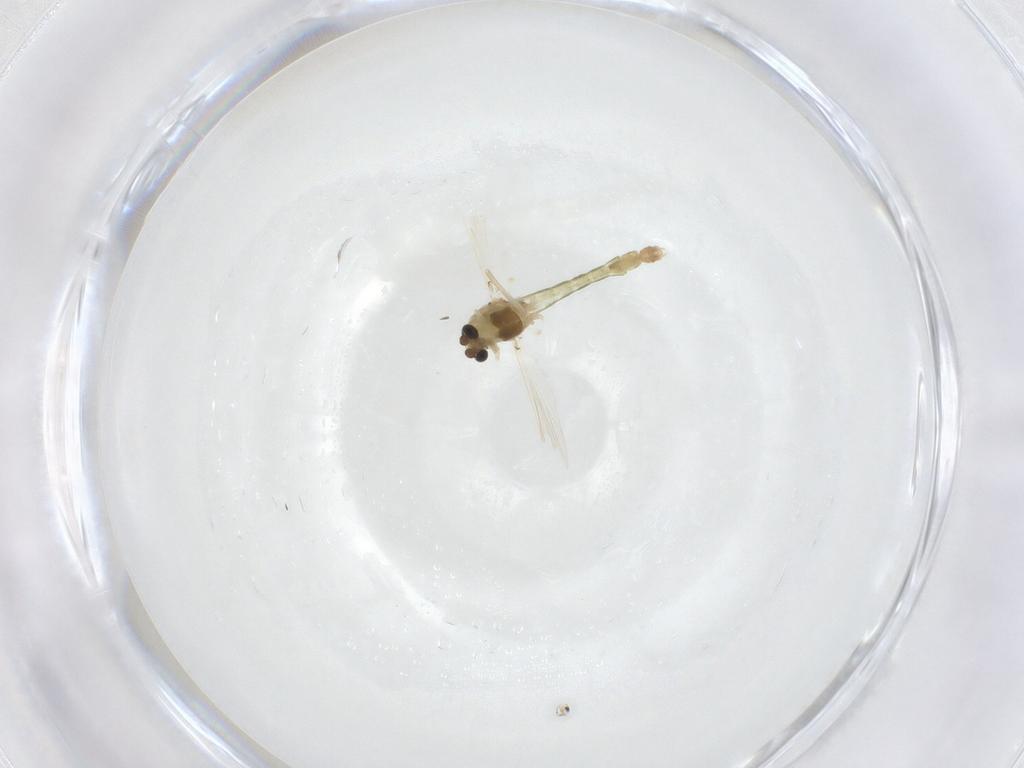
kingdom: Animalia
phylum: Arthropoda
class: Insecta
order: Diptera
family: Chironomidae
